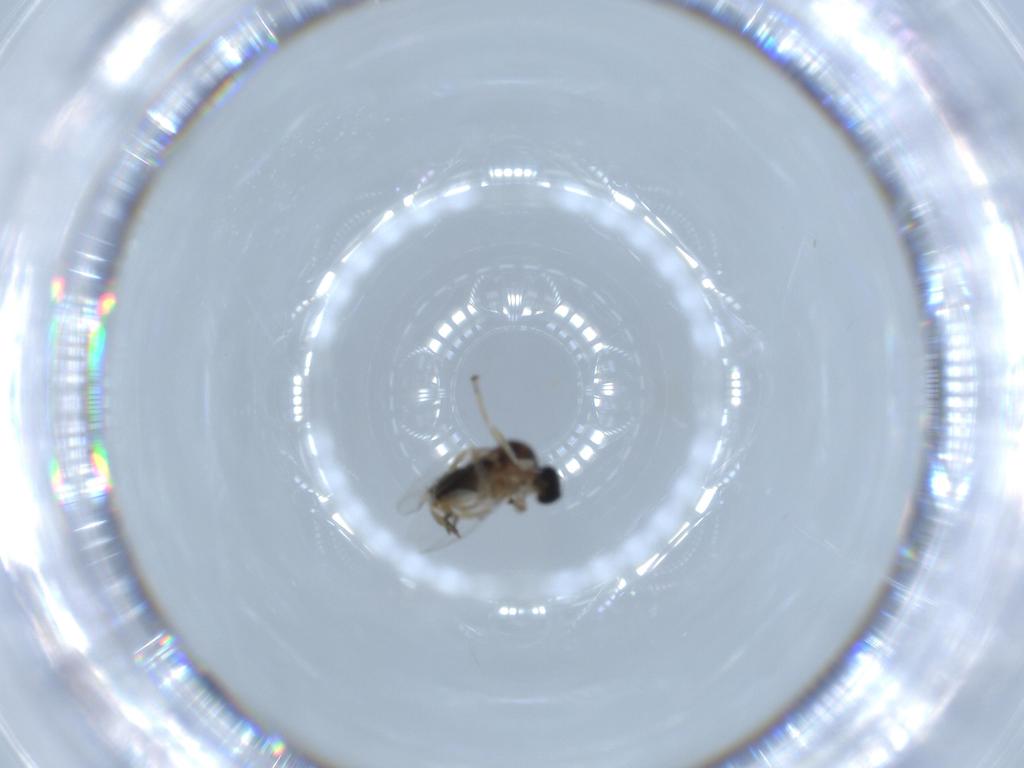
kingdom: Animalia
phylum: Arthropoda
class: Insecta
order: Diptera
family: Phoridae
